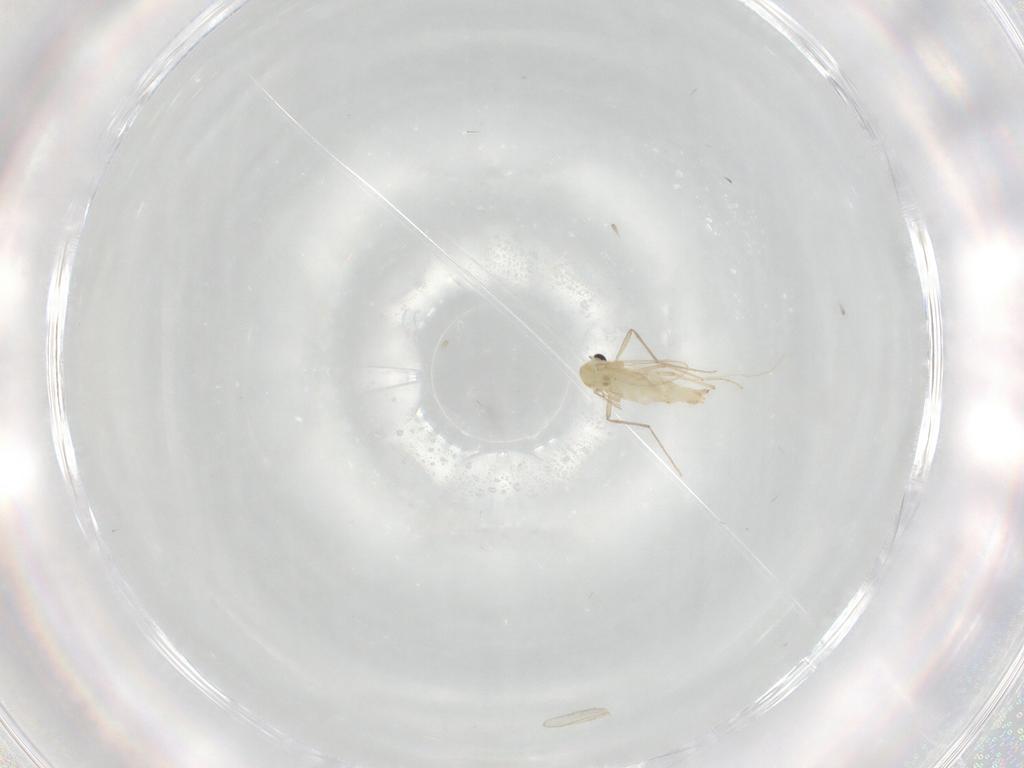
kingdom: Animalia
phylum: Arthropoda
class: Insecta
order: Diptera
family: Chironomidae
